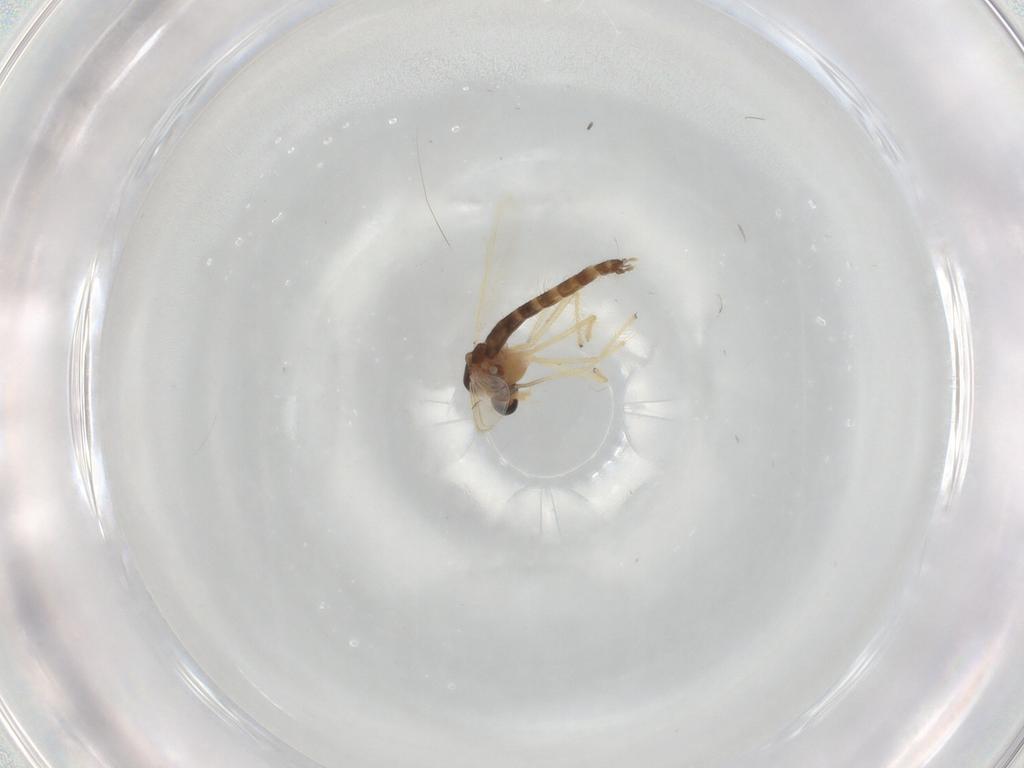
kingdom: Animalia
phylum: Arthropoda
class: Insecta
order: Diptera
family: Chironomidae
